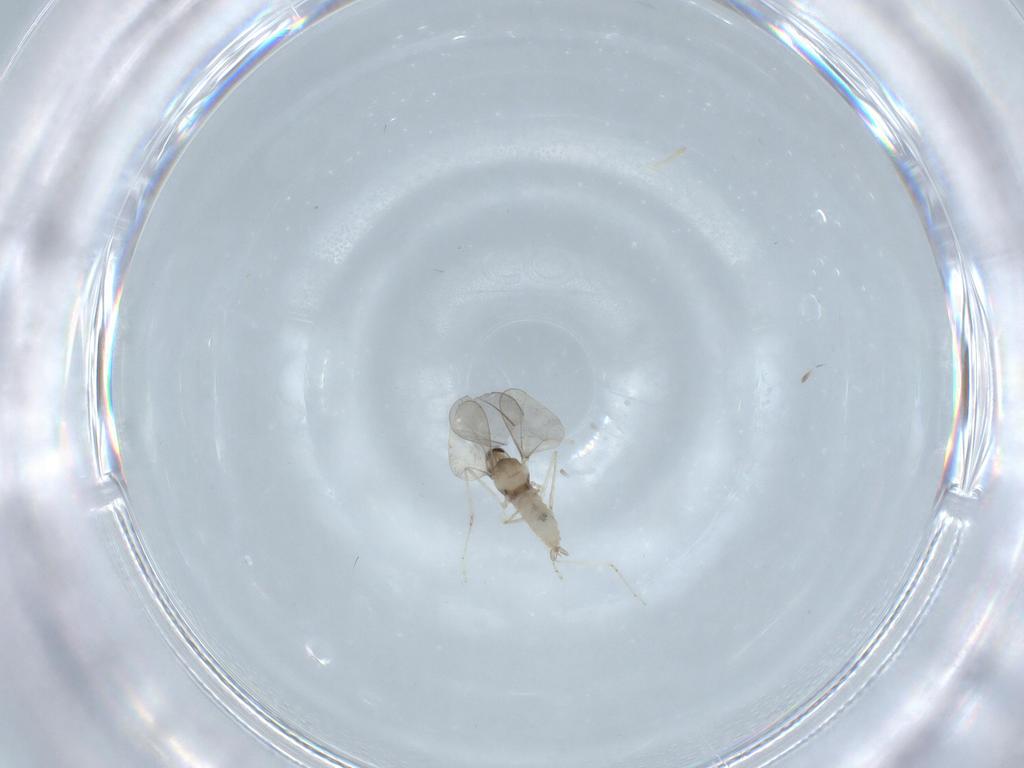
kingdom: Animalia
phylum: Arthropoda
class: Insecta
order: Diptera
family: Cecidomyiidae
